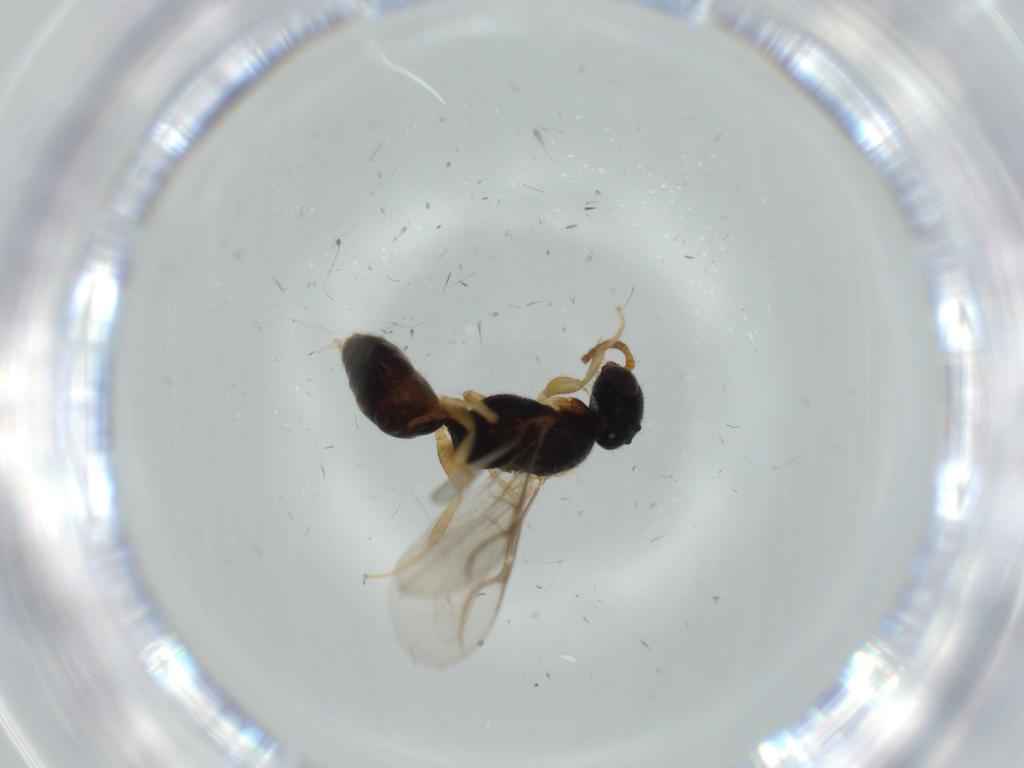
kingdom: Animalia
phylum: Arthropoda
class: Insecta
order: Hymenoptera
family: Bethylidae
